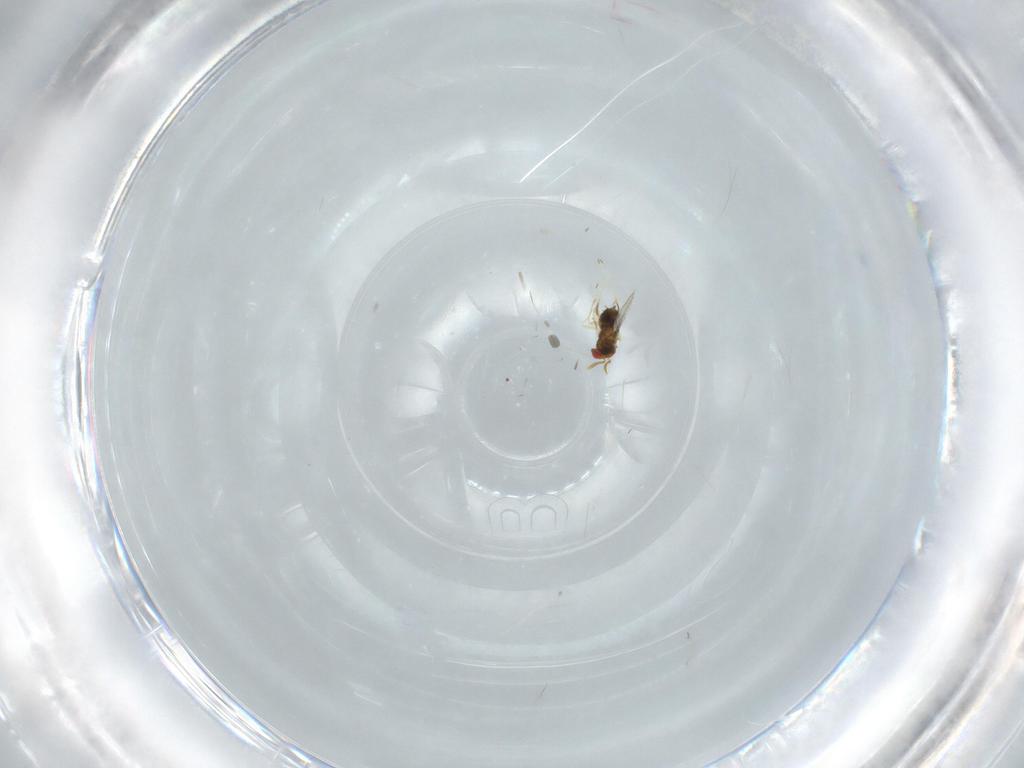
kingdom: Animalia
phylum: Arthropoda
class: Insecta
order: Hymenoptera
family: Trichogrammatidae
